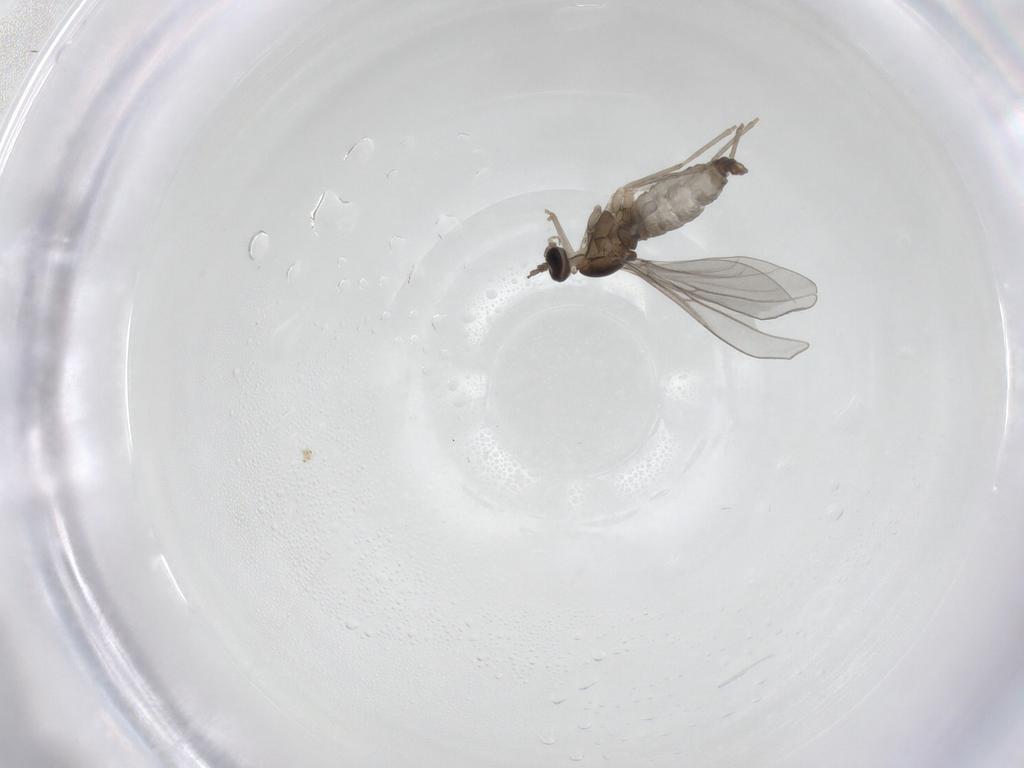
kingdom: Animalia
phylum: Arthropoda
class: Insecta
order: Diptera
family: Cecidomyiidae
